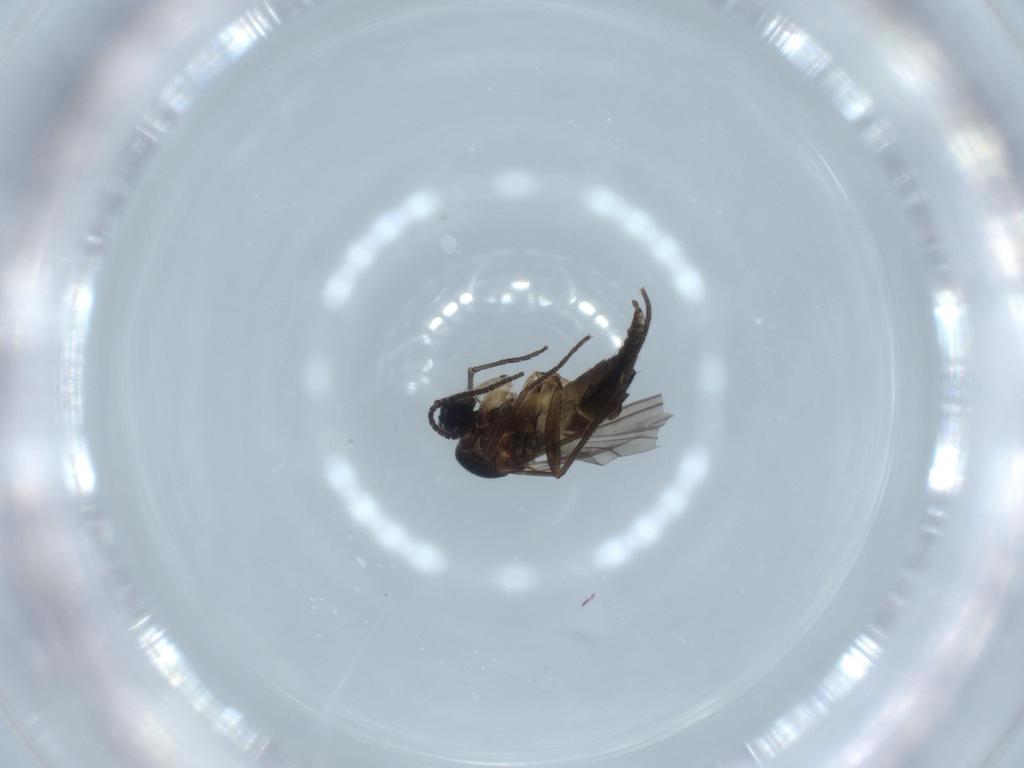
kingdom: Animalia
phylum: Arthropoda
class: Insecta
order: Diptera
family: Sciaridae
